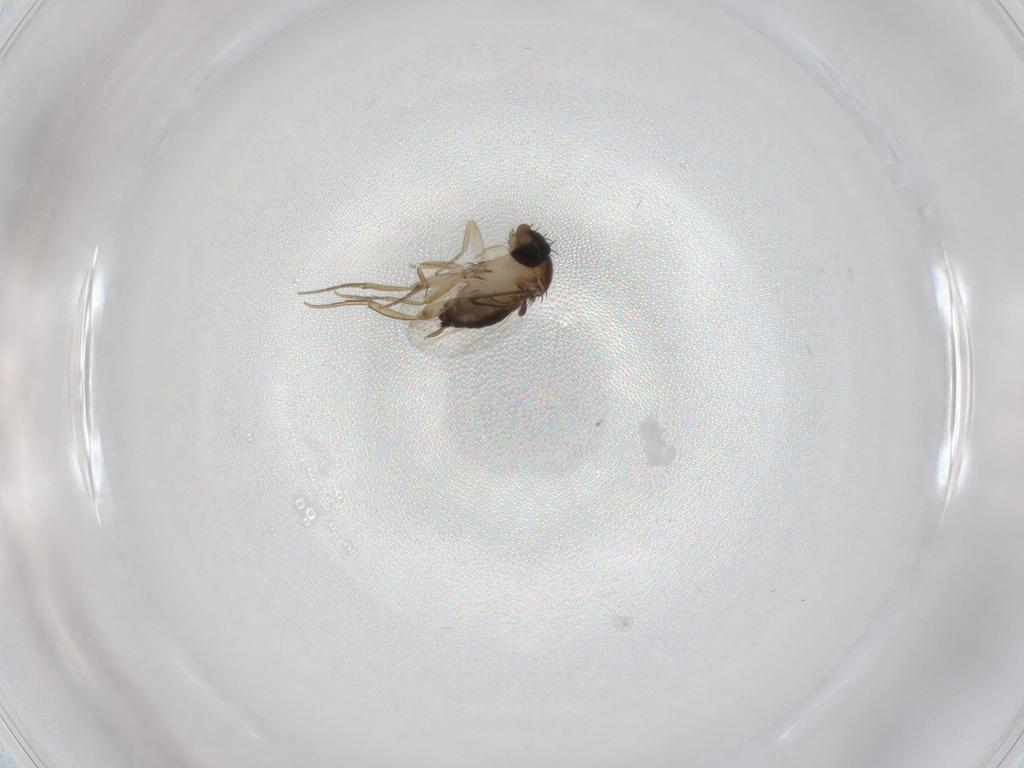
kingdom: Animalia
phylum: Arthropoda
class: Insecta
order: Diptera
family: Phoridae
